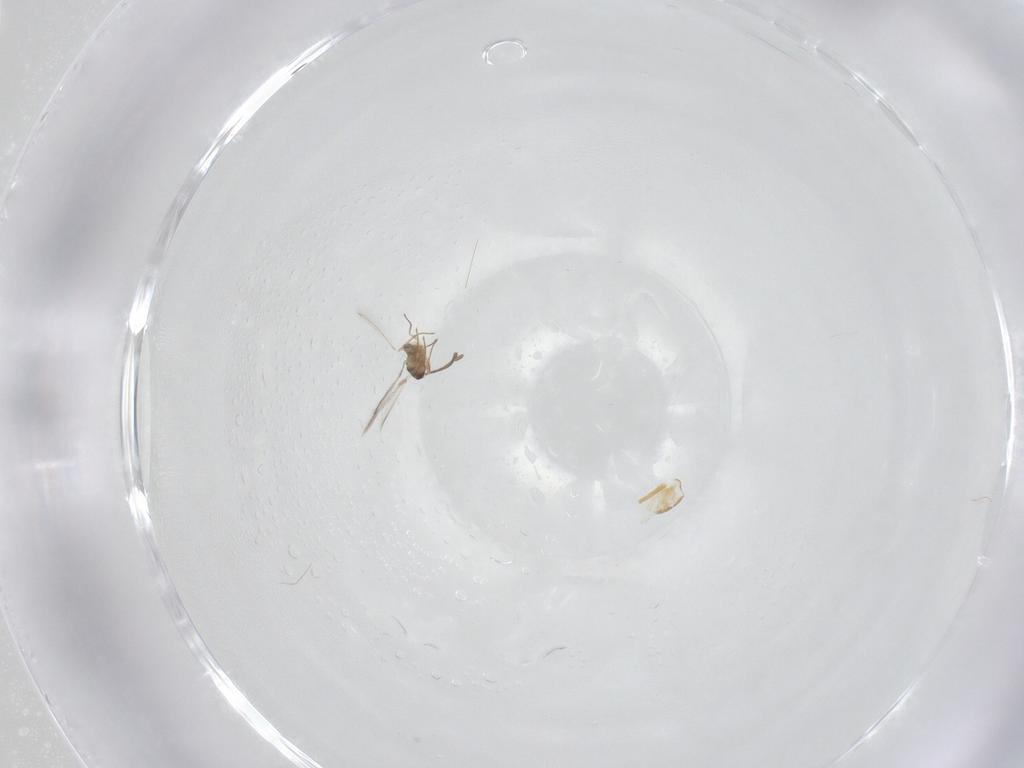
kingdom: Animalia
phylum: Arthropoda
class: Insecta
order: Hymenoptera
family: Mymaridae
